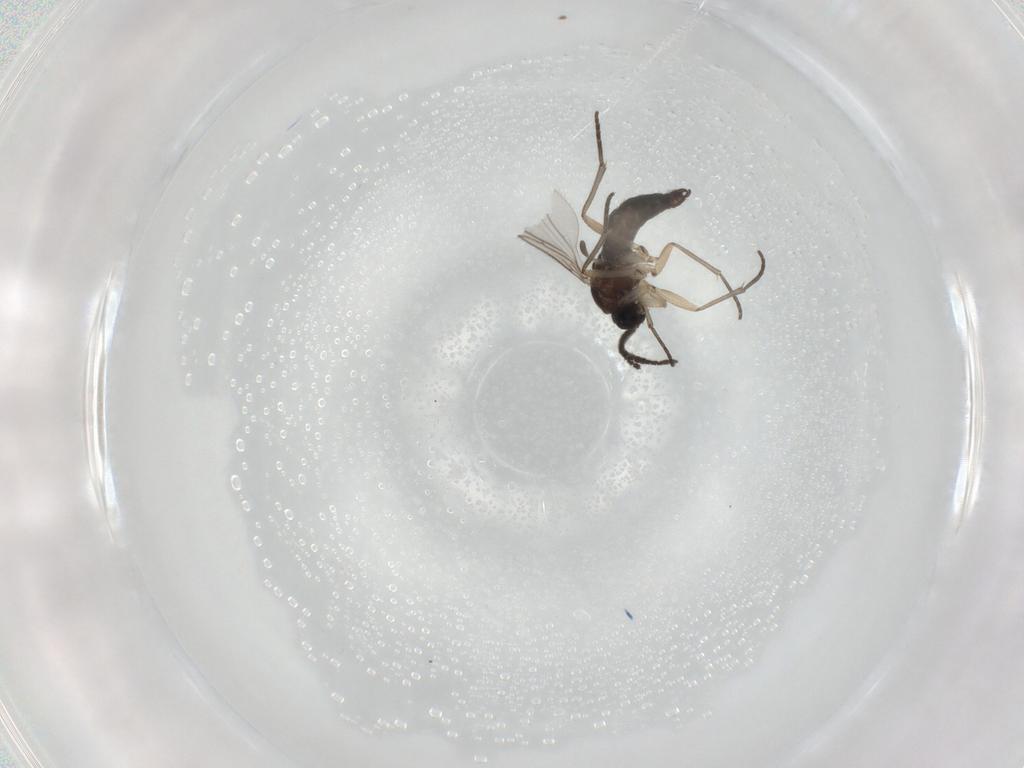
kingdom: Animalia
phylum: Arthropoda
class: Insecta
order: Diptera
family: Sciaridae
